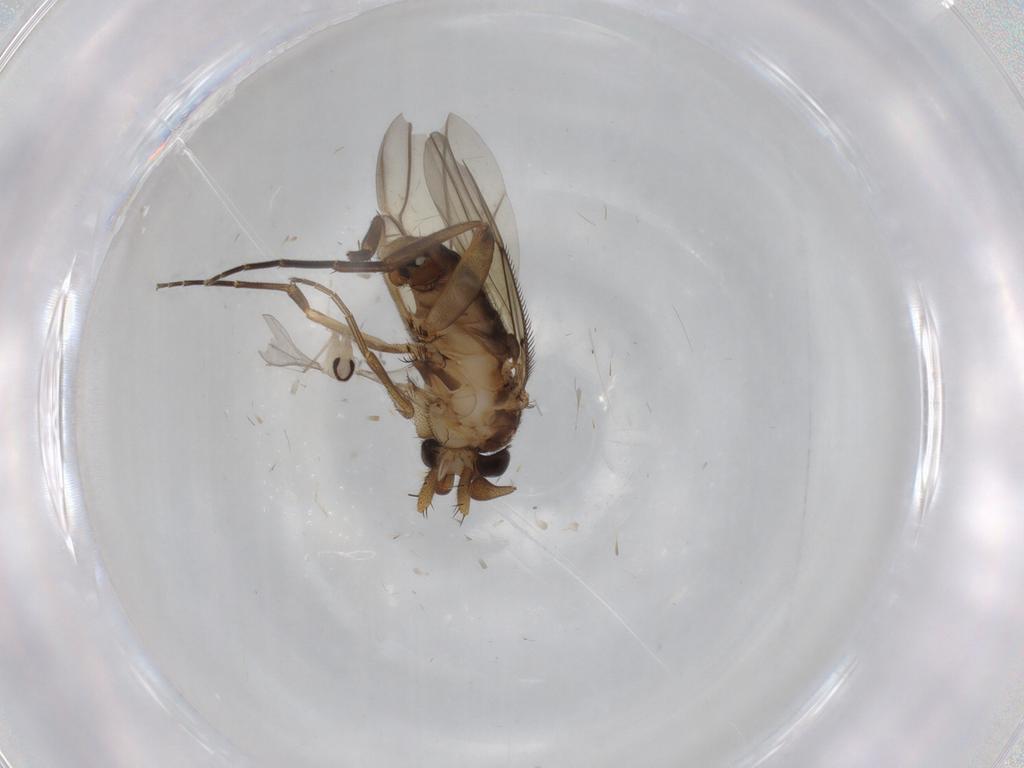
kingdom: Animalia
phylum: Arthropoda
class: Insecta
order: Diptera
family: Phoridae
